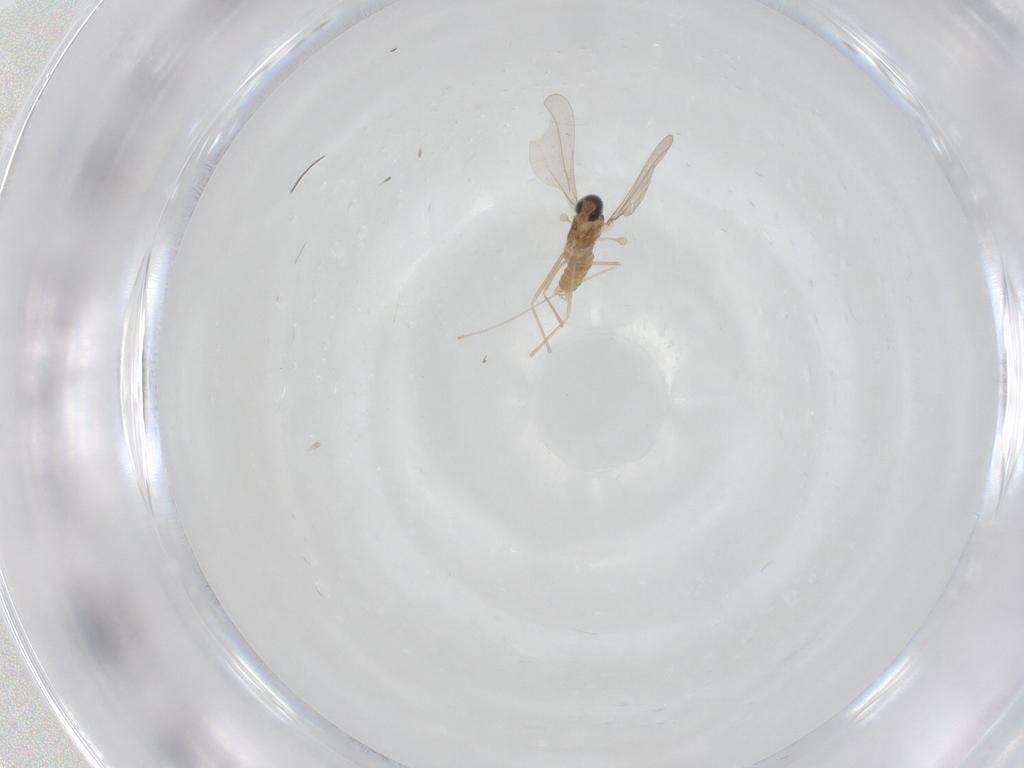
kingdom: Animalia
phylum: Arthropoda
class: Insecta
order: Diptera
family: Cecidomyiidae
